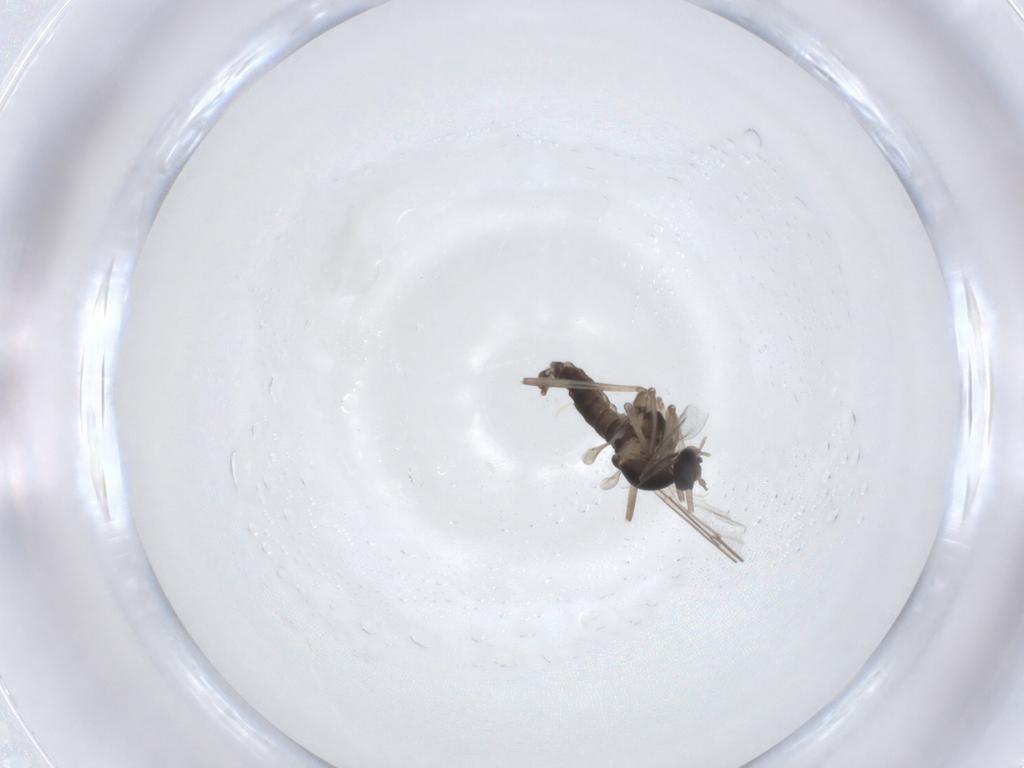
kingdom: Animalia
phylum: Arthropoda
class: Insecta
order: Diptera
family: Cecidomyiidae
